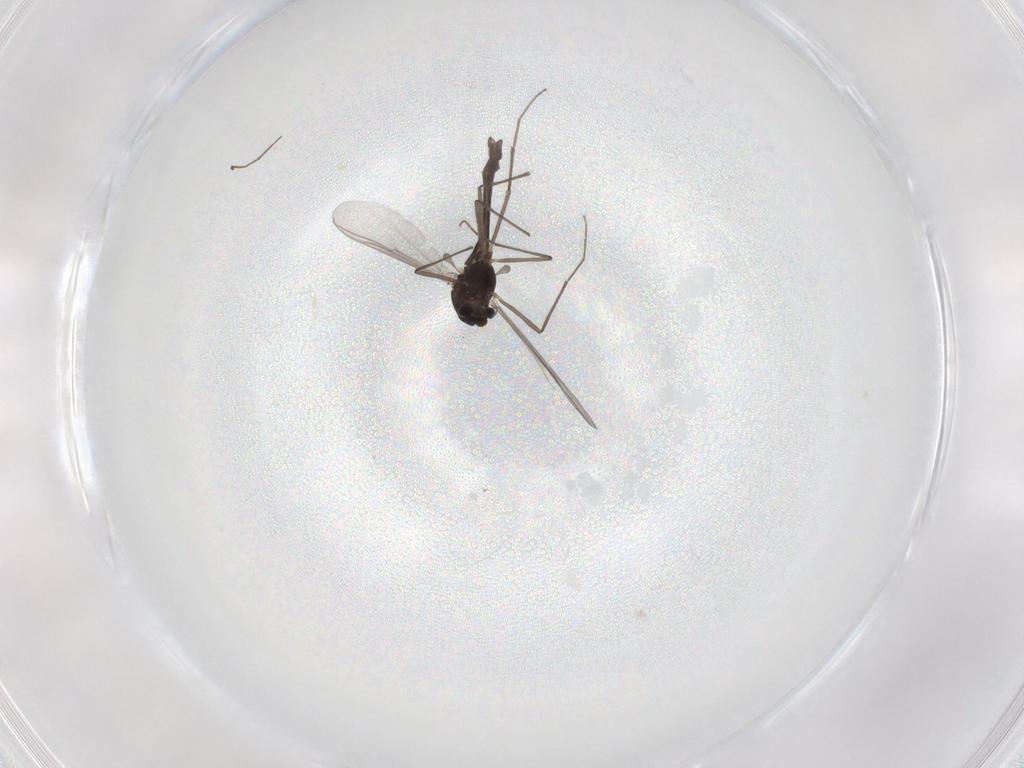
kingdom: Animalia
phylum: Arthropoda
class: Insecta
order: Diptera
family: Chironomidae
